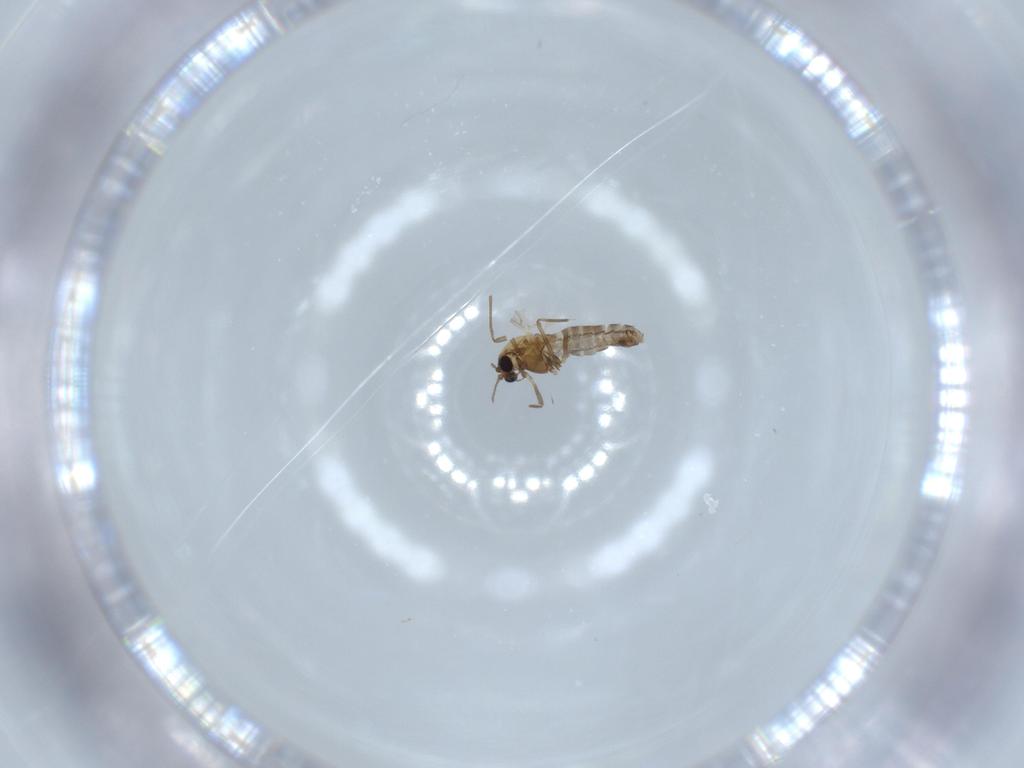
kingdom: Animalia
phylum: Arthropoda
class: Insecta
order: Diptera
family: Chironomidae
